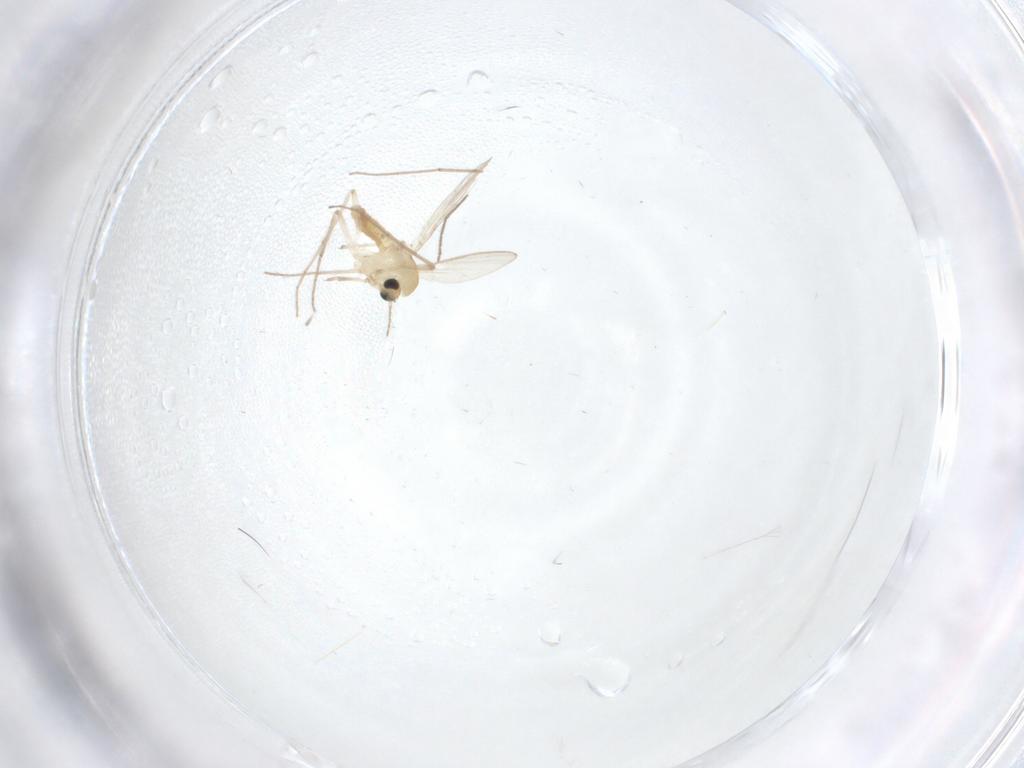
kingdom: Animalia
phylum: Arthropoda
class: Insecta
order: Diptera
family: Chironomidae
